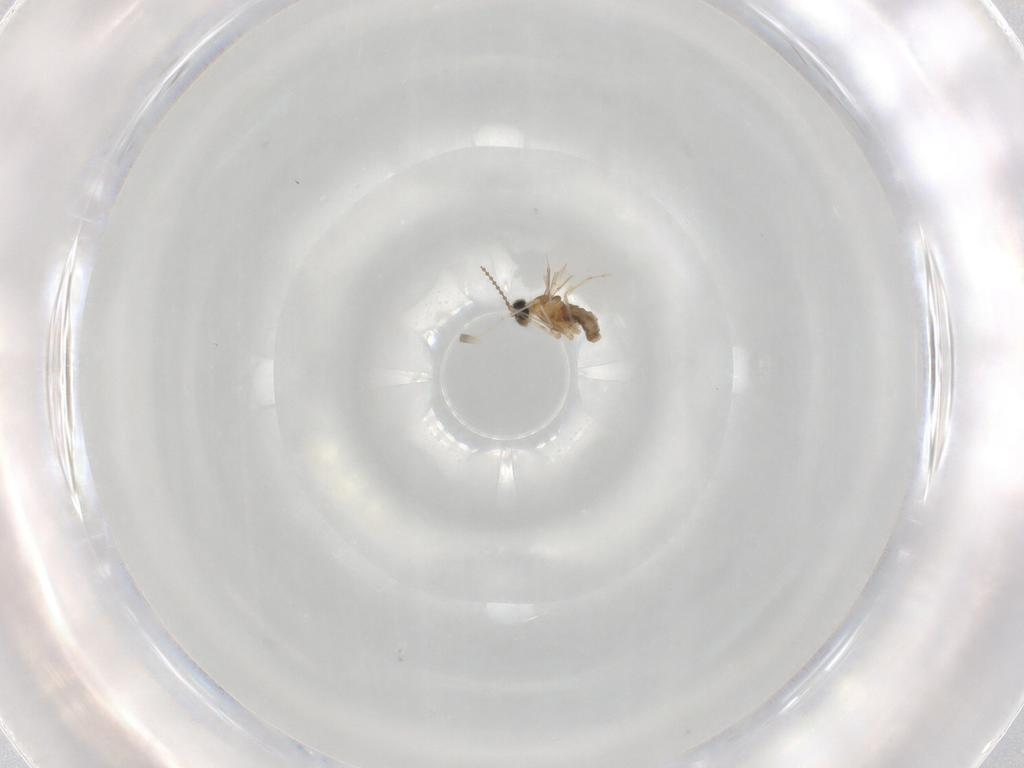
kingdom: Animalia
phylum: Arthropoda
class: Insecta
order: Diptera
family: Cecidomyiidae
